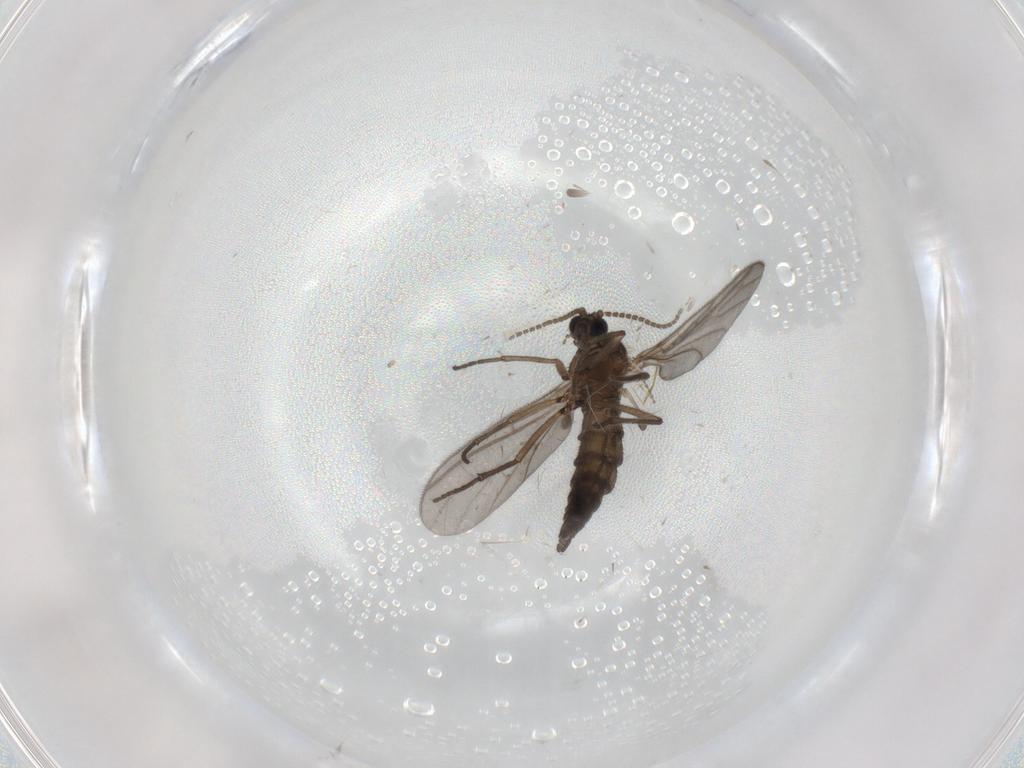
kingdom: Animalia
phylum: Arthropoda
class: Insecta
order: Diptera
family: Sciaridae
